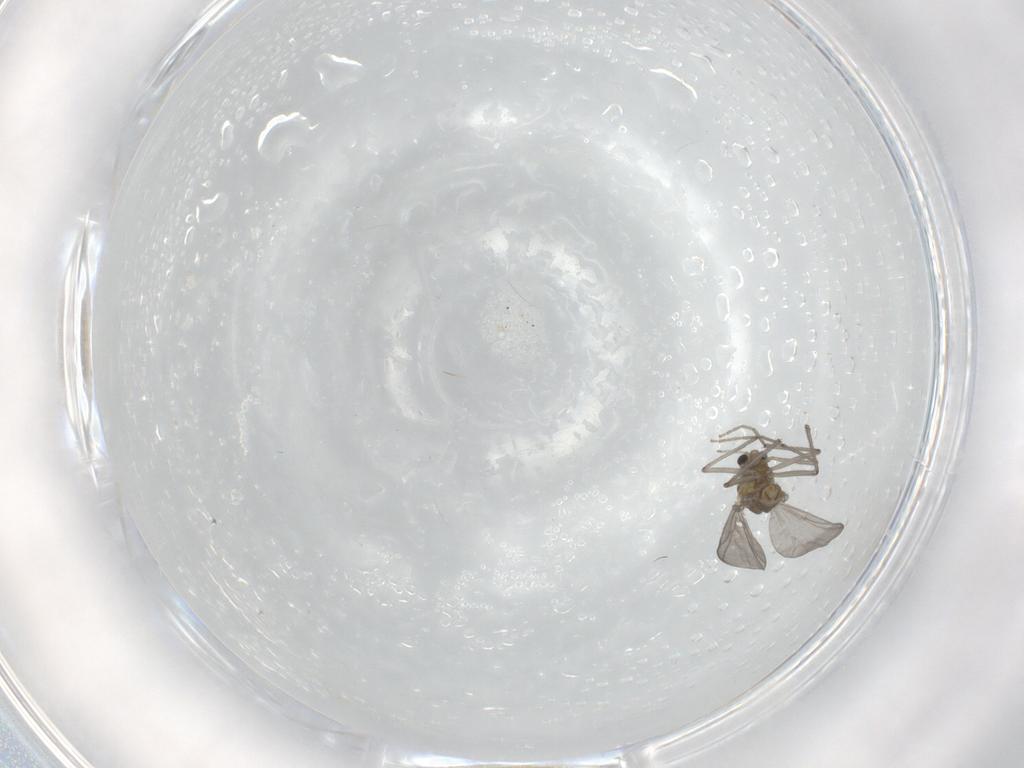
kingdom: Animalia
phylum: Arthropoda
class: Insecta
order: Diptera
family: Chironomidae
